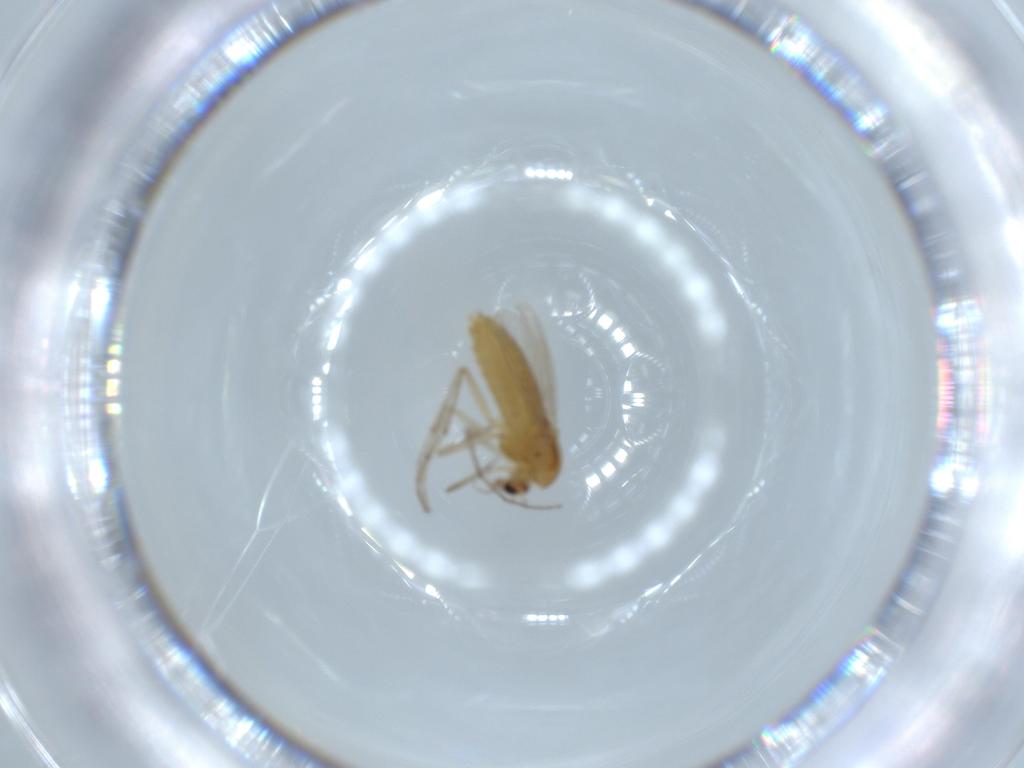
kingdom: Animalia
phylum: Arthropoda
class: Insecta
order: Diptera
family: Chironomidae
